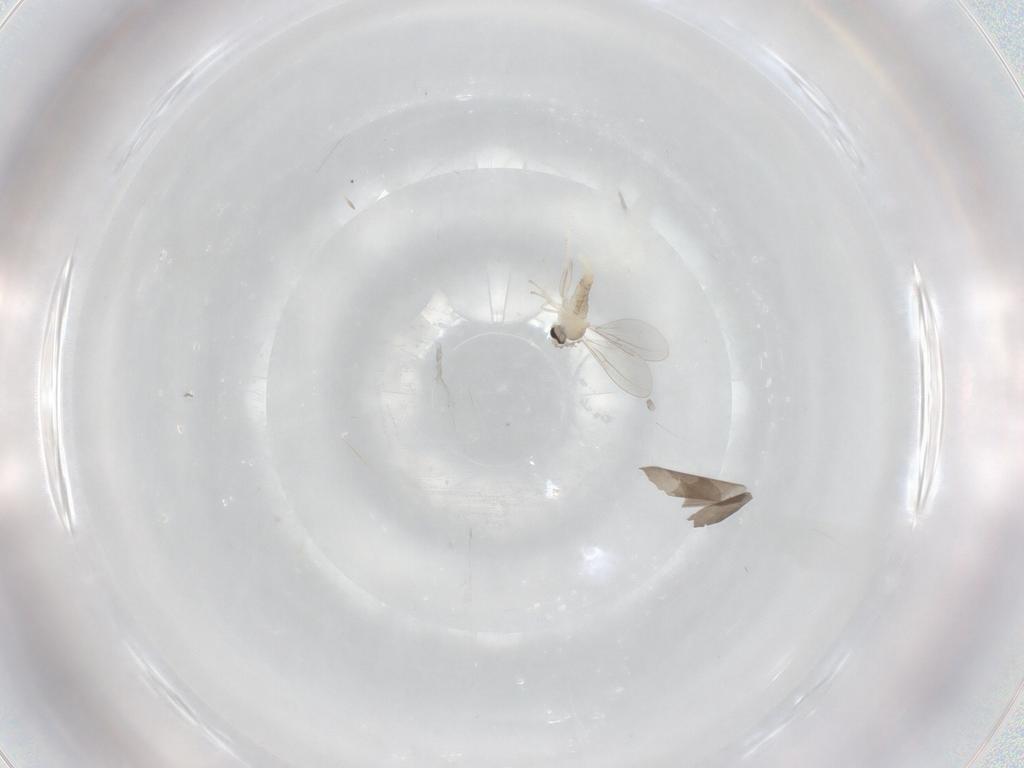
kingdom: Animalia
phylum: Arthropoda
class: Insecta
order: Diptera
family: Cecidomyiidae
